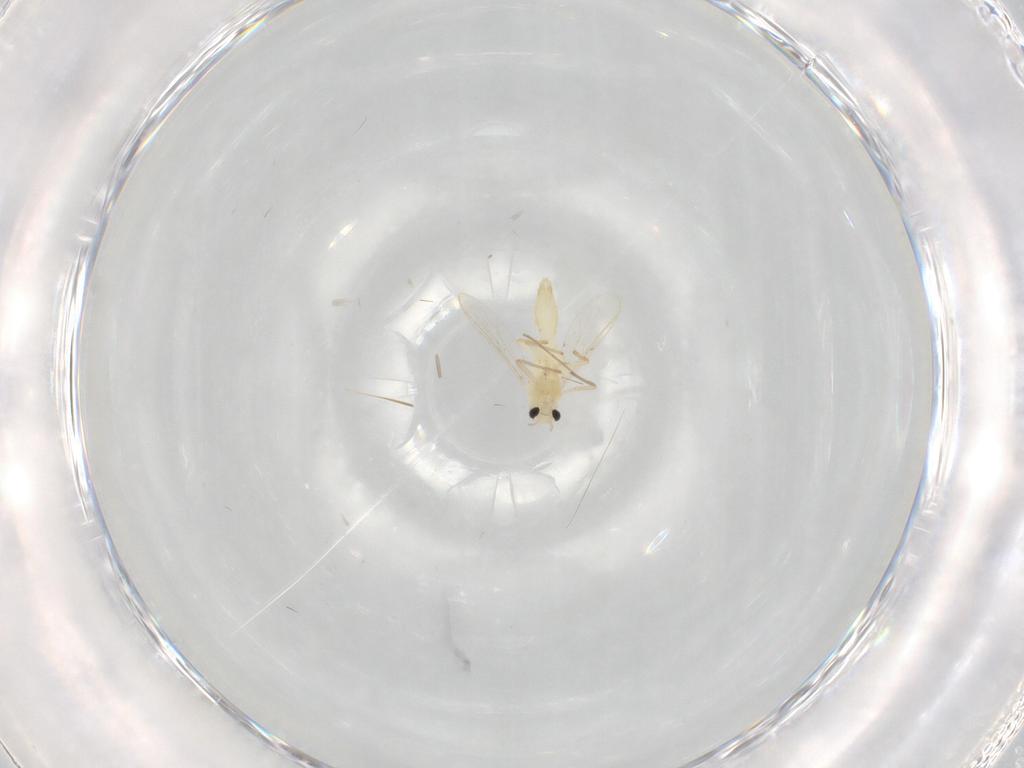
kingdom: Animalia
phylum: Arthropoda
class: Insecta
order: Diptera
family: Chironomidae
